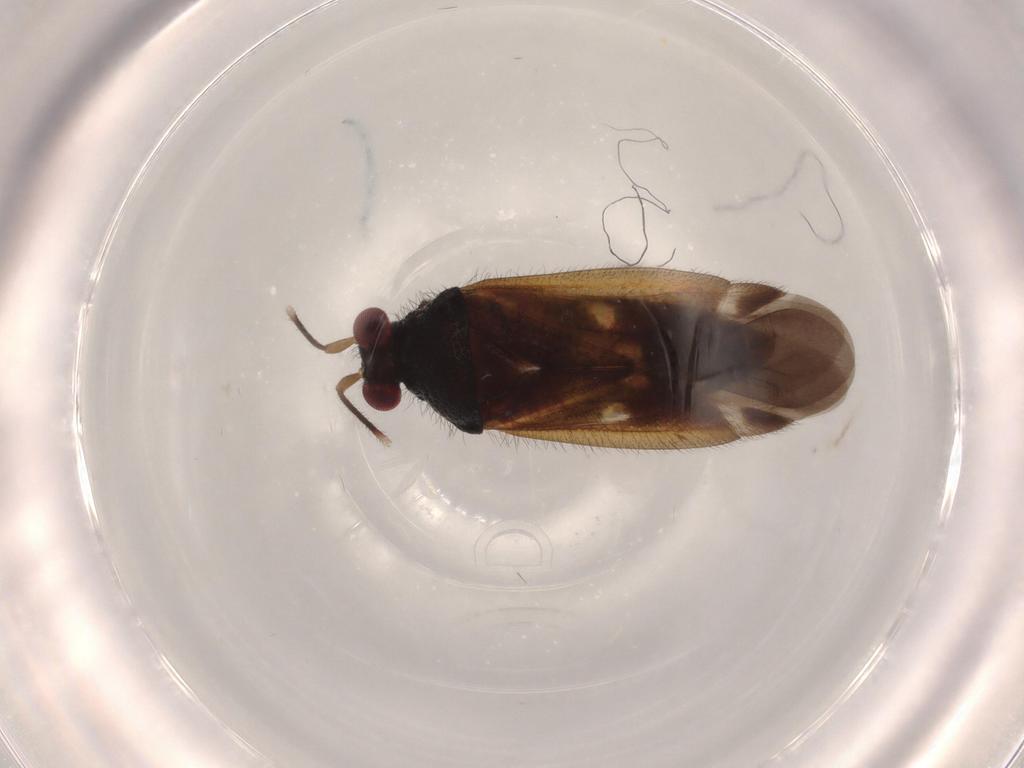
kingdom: Animalia
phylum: Arthropoda
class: Insecta
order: Hemiptera
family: Miridae
